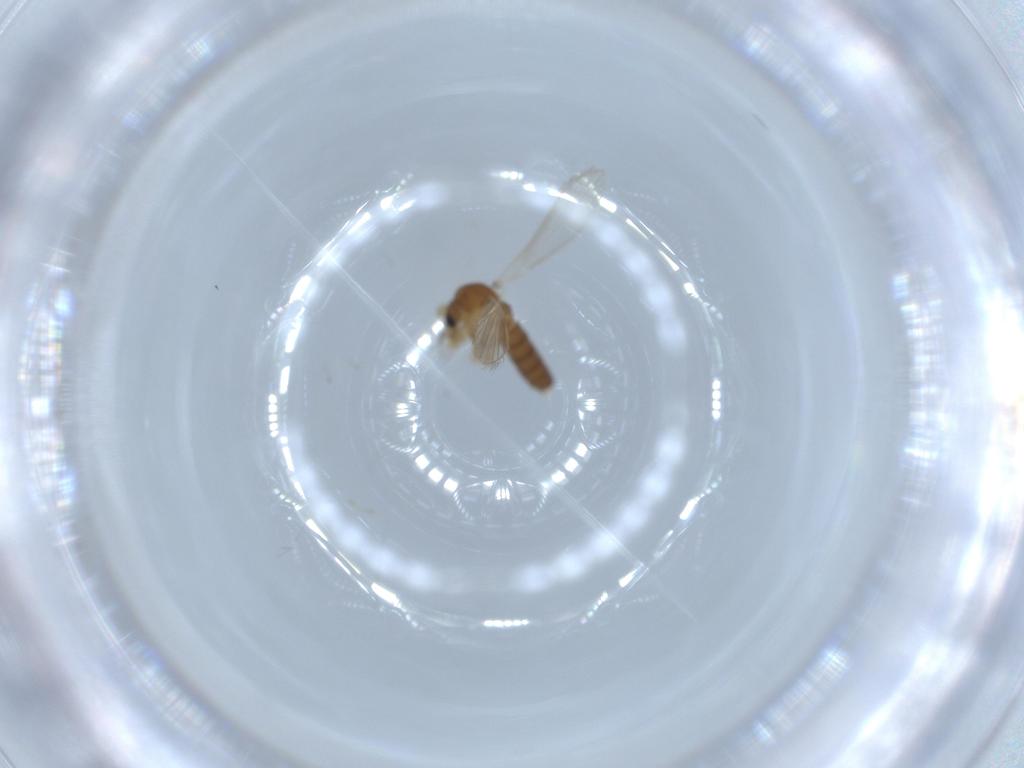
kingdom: Animalia
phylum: Arthropoda
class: Insecta
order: Diptera
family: Psychodidae
